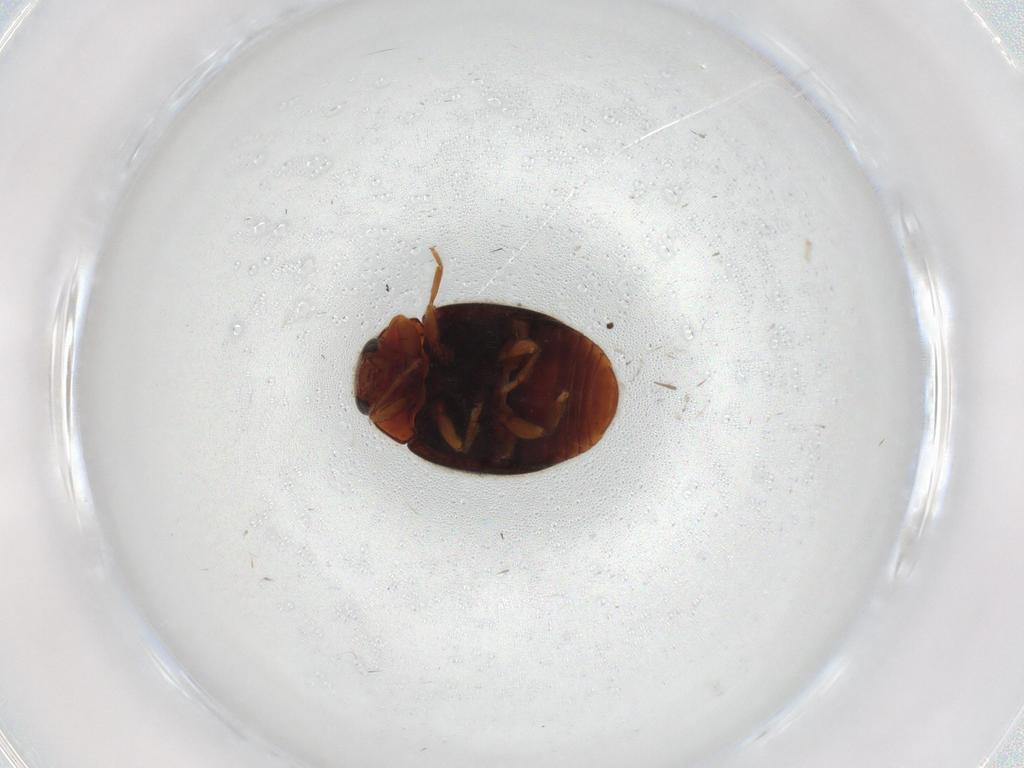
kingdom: Animalia
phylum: Arthropoda
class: Insecta
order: Coleoptera
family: Coccinellidae
